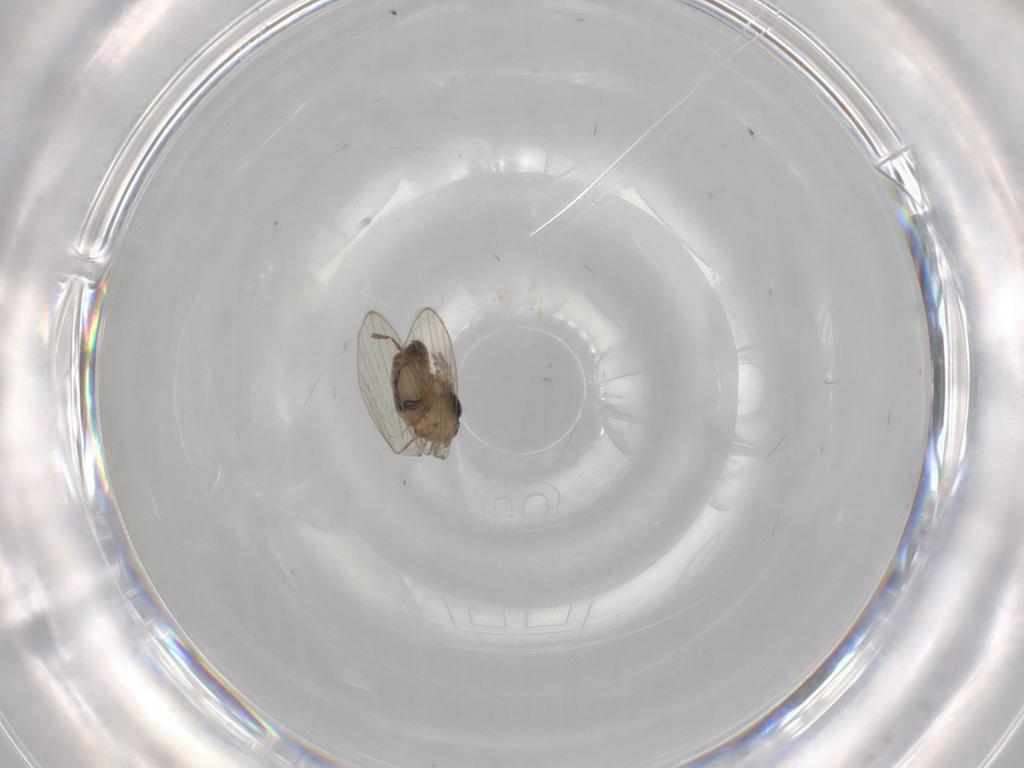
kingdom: Animalia
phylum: Arthropoda
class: Insecta
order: Diptera
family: Psychodidae
